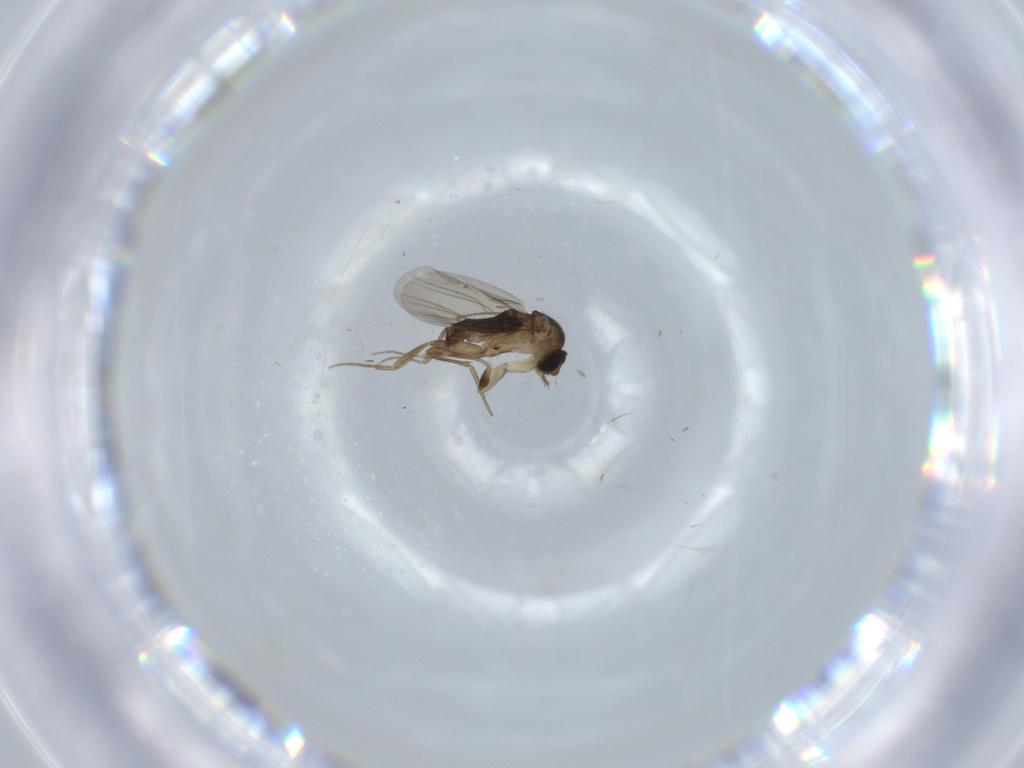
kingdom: Animalia
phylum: Arthropoda
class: Insecta
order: Diptera
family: Phoridae
